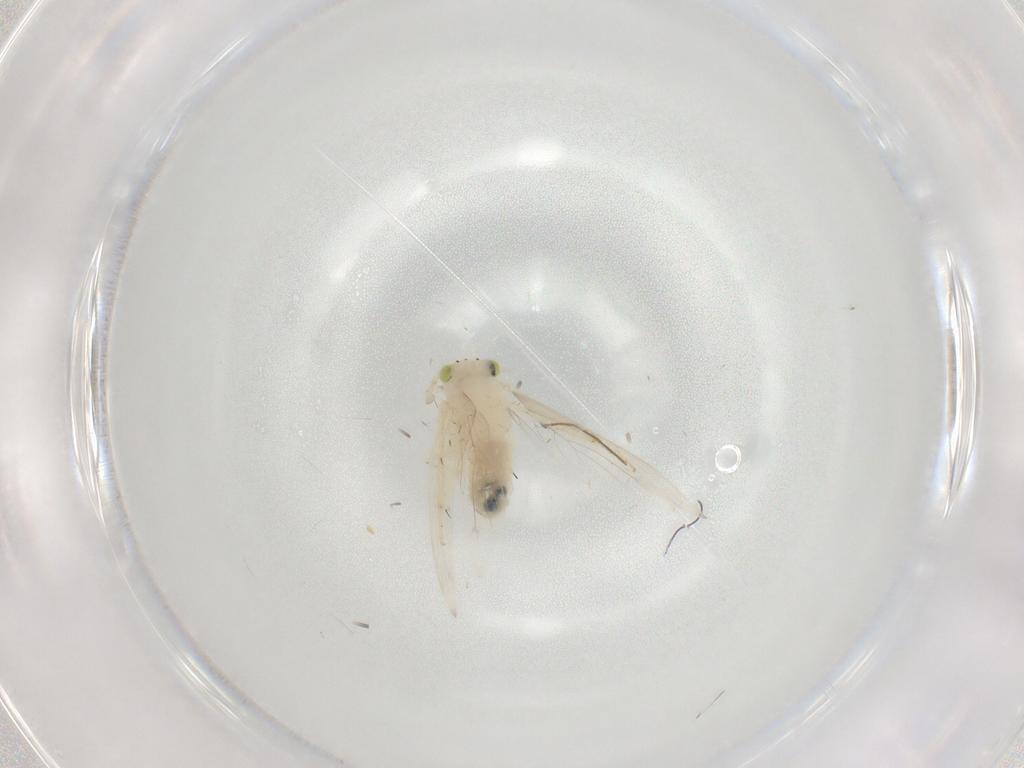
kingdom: Animalia
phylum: Arthropoda
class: Insecta
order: Psocodea
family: Lepidopsocidae
